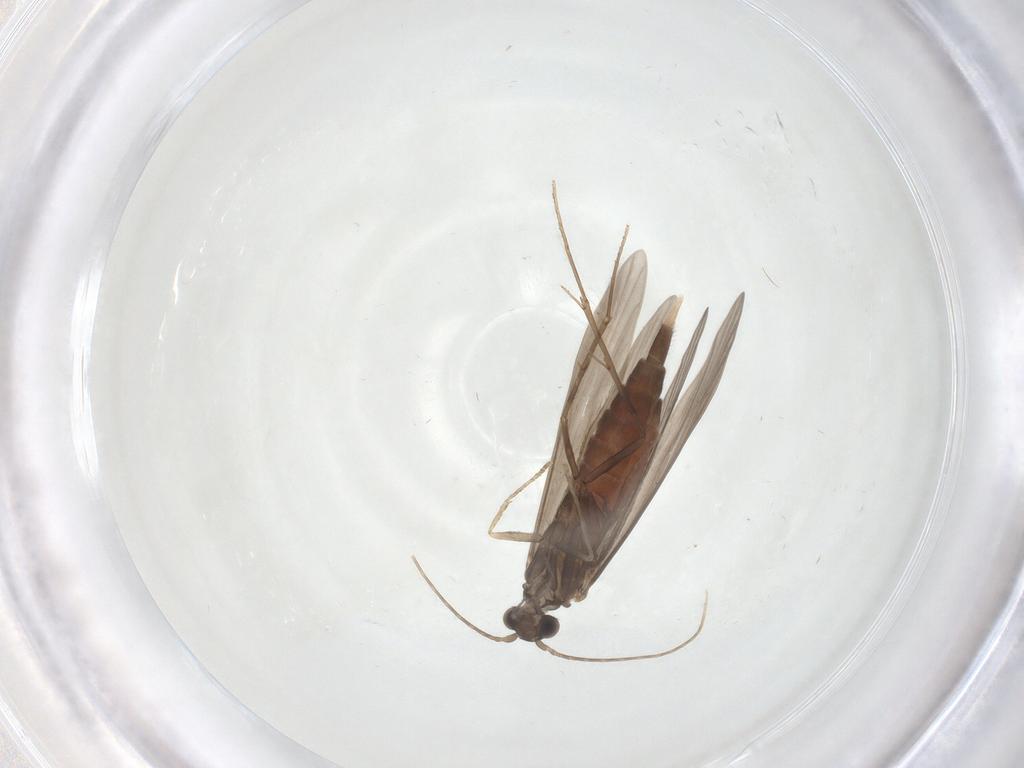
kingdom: Animalia
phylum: Arthropoda
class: Insecta
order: Trichoptera
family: Xiphocentronidae
